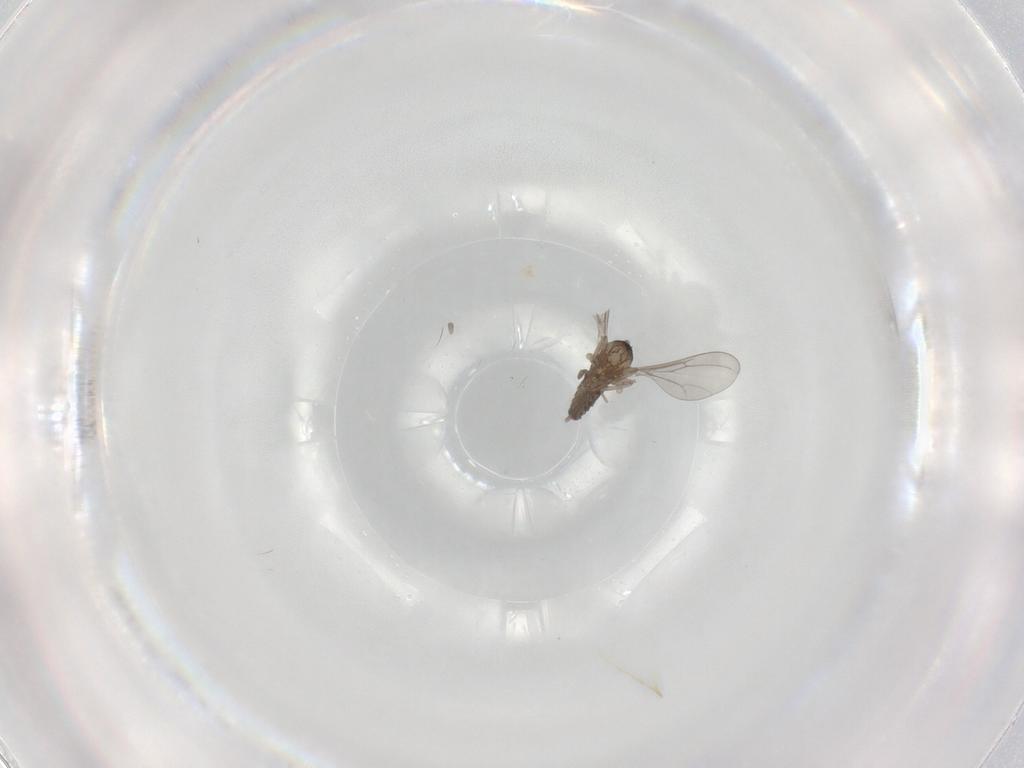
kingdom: Animalia
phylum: Arthropoda
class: Insecta
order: Diptera
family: Cecidomyiidae
